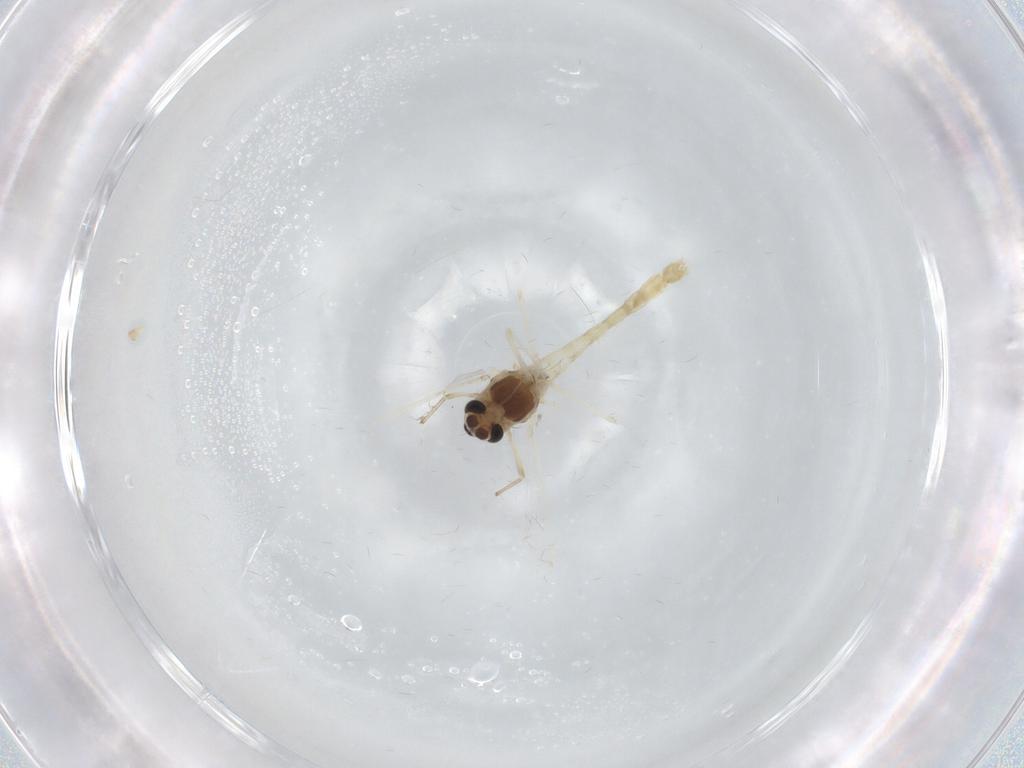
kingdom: Animalia
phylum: Arthropoda
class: Insecta
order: Diptera
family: Chironomidae
